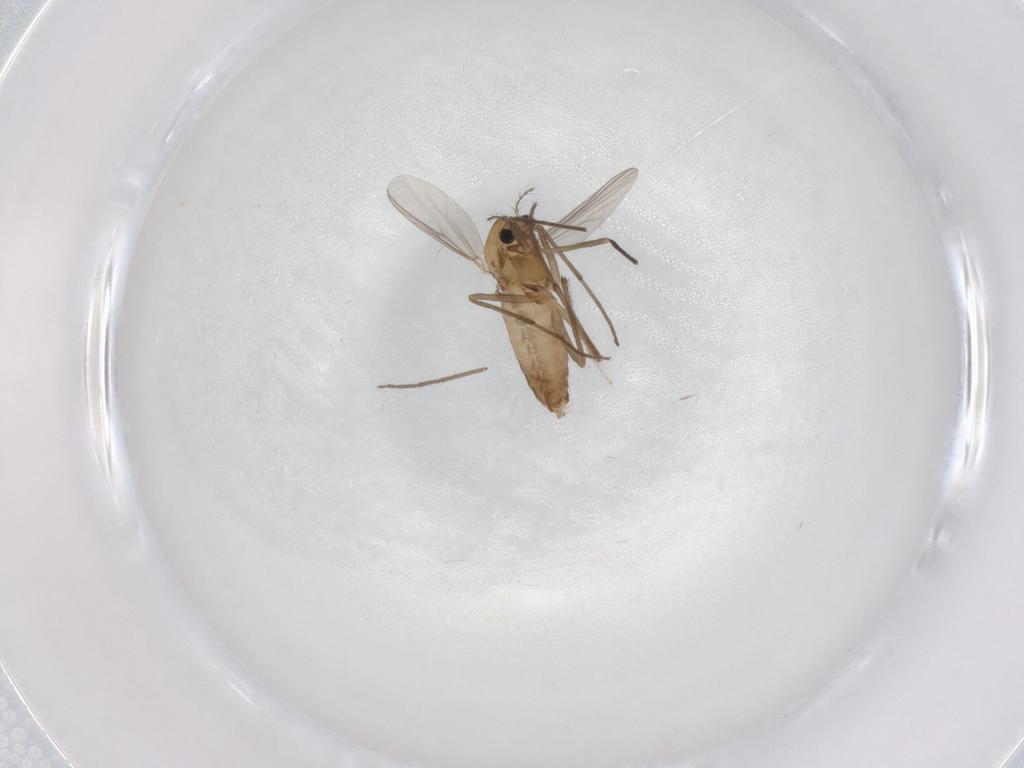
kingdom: Animalia
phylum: Arthropoda
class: Insecta
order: Diptera
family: Chironomidae
